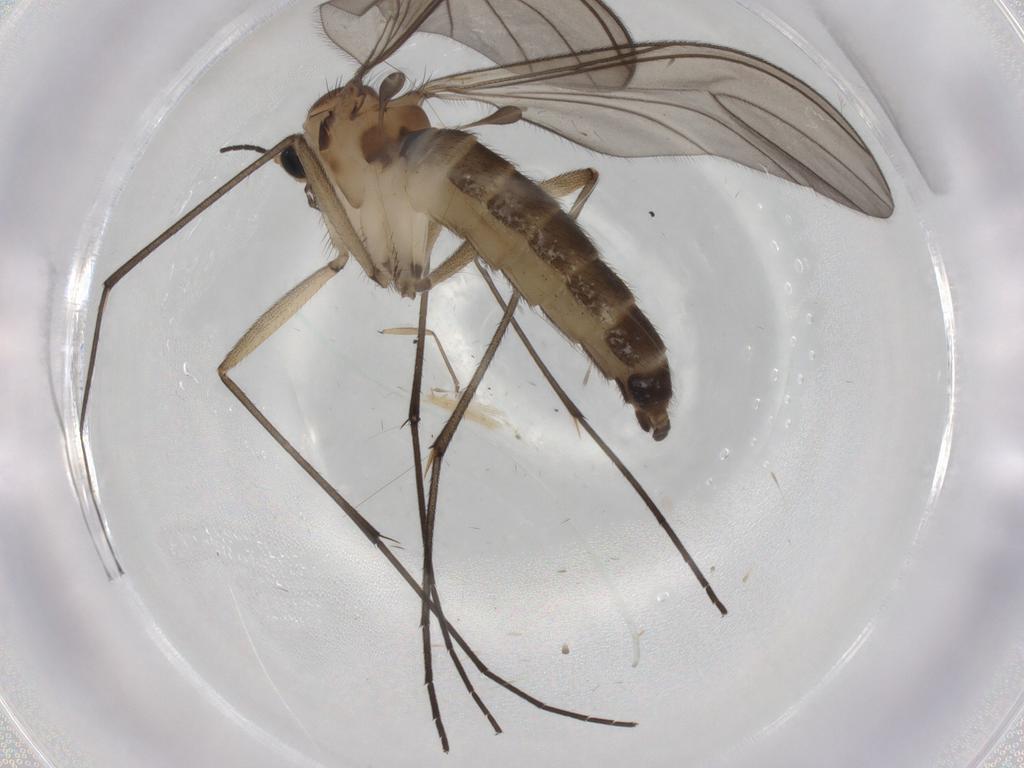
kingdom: Animalia
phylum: Arthropoda
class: Insecta
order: Diptera
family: Sciaridae
